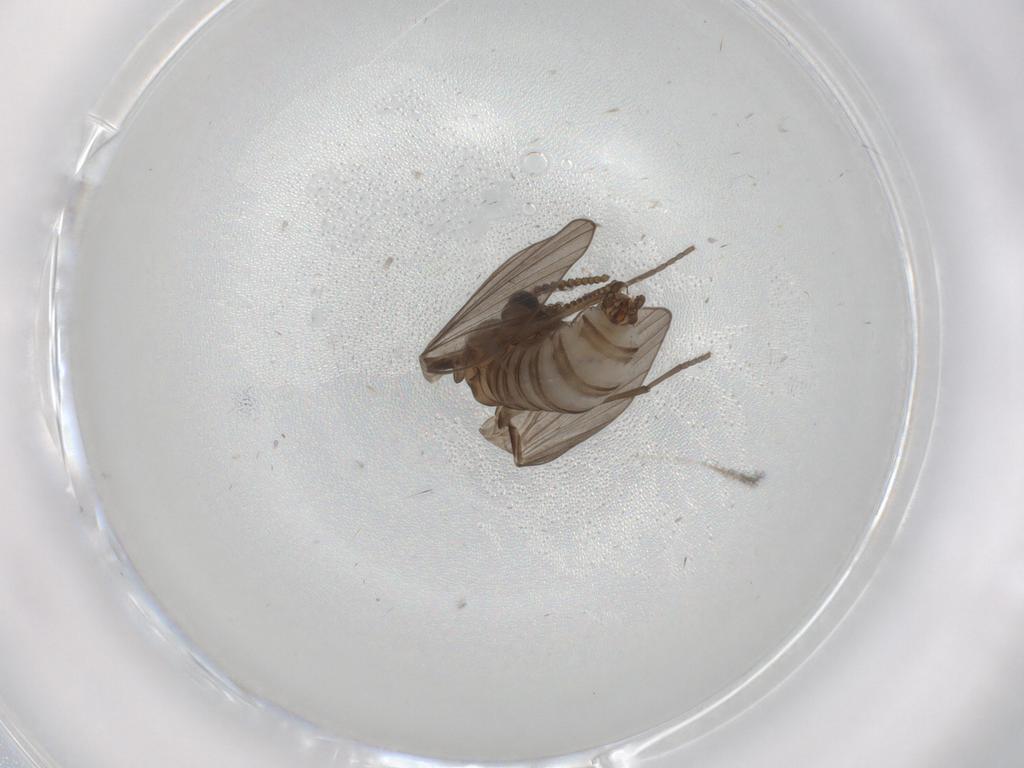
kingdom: Animalia
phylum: Arthropoda
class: Insecta
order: Diptera
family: Psychodidae
